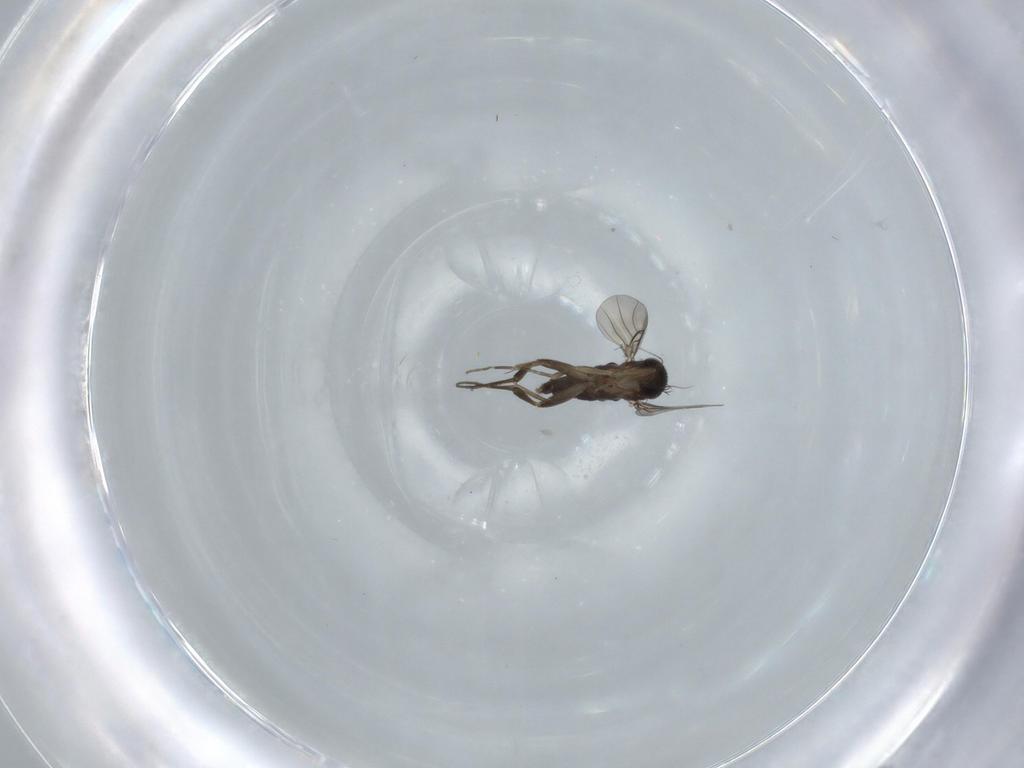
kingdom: Animalia
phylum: Arthropoda
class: Insecta
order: Diptera
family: Phoridae
